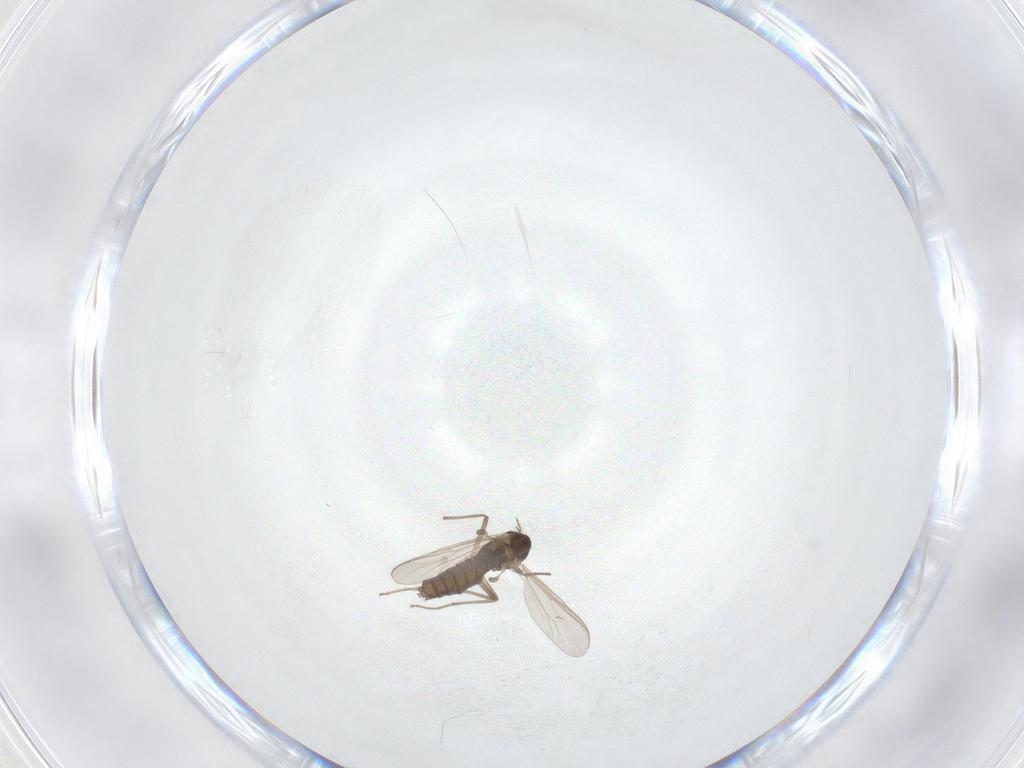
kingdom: Animalia
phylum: Arthropoda
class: Insecta
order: Diptera
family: Chironomidae
